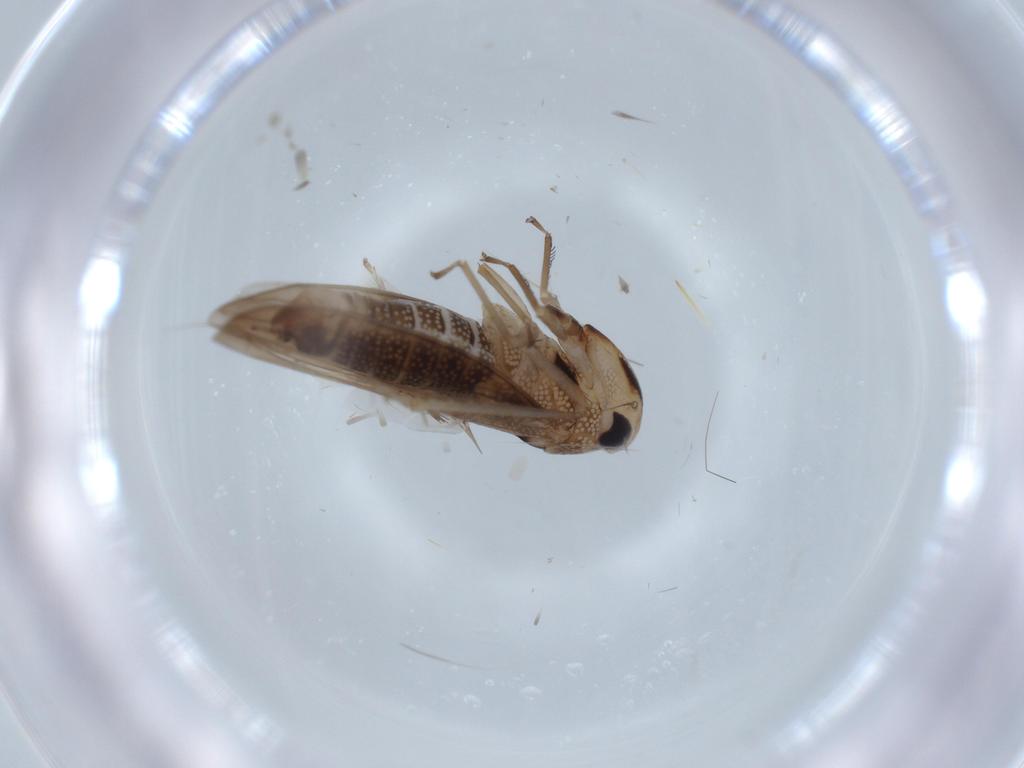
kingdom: Animalia
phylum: Arthropoda
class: Insecta
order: Hemiptera
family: Cicadellidae
